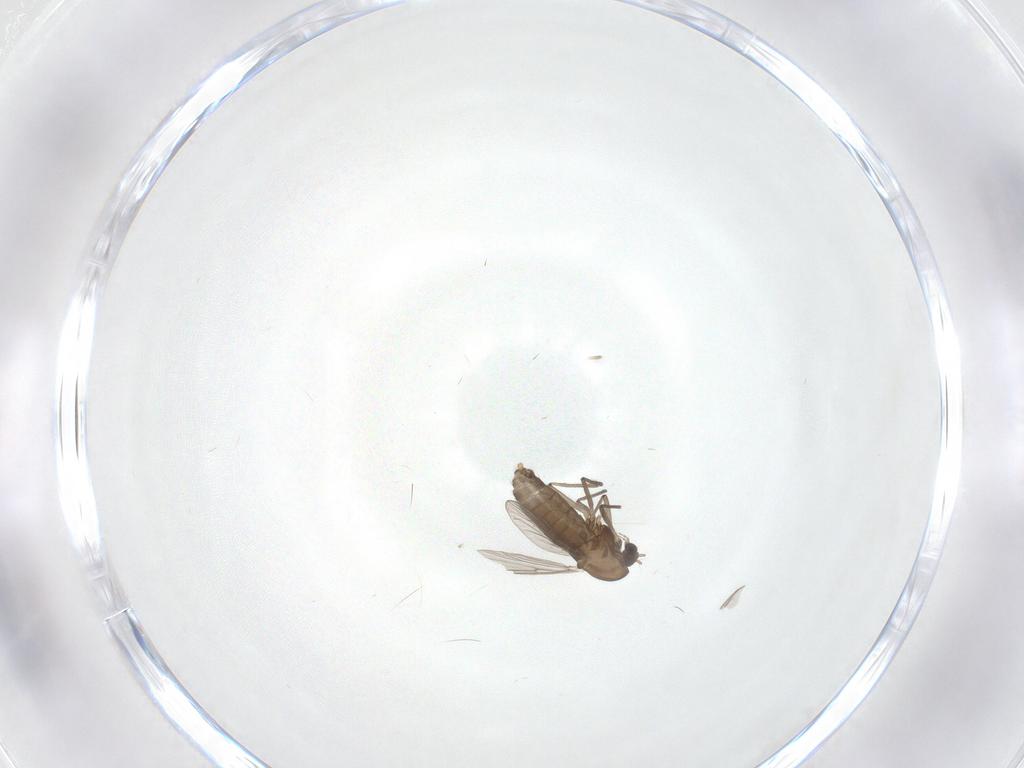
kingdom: Animalia
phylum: Arthropoda
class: Insecta
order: Diptera
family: Chironomidae
